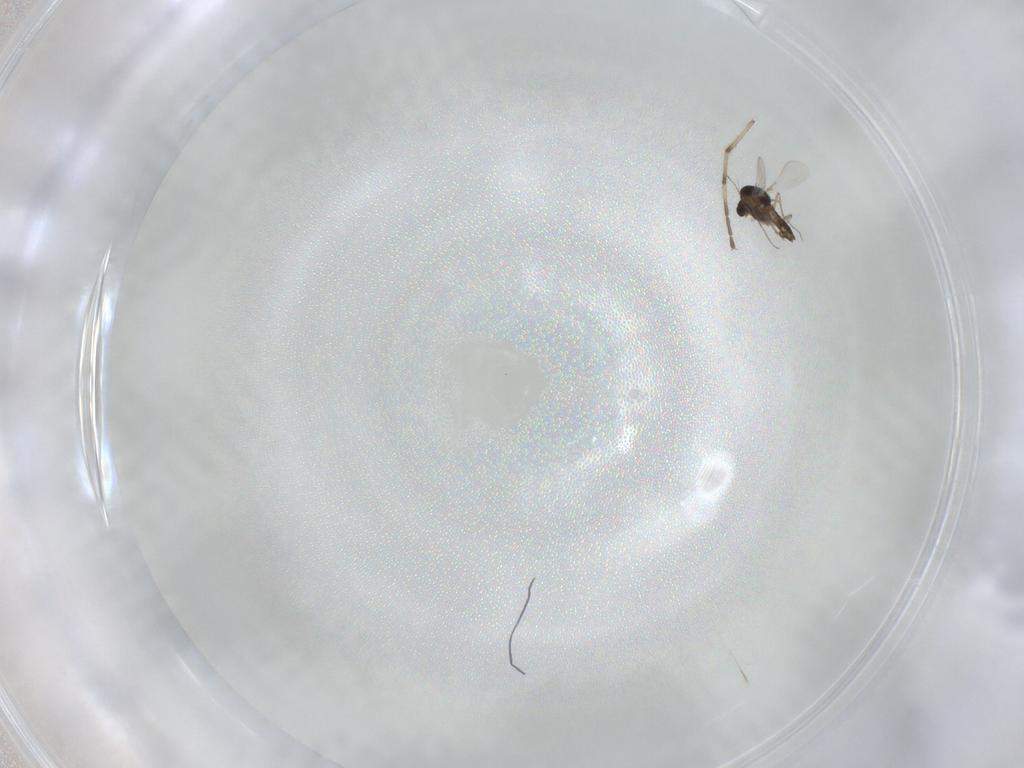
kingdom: Animalia
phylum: Arthropoda
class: Insecta
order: Diptera
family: Chironomidae
